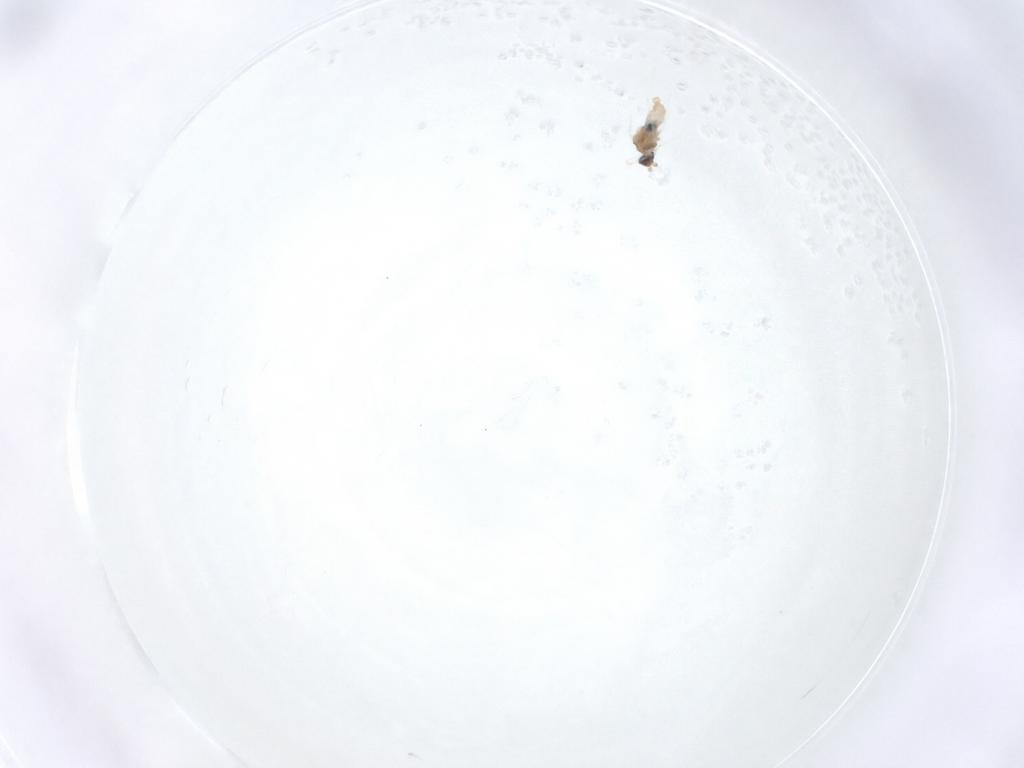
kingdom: Animalia
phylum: Arthropoda
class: Insecta
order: Diptera
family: Cecidomyiidae
